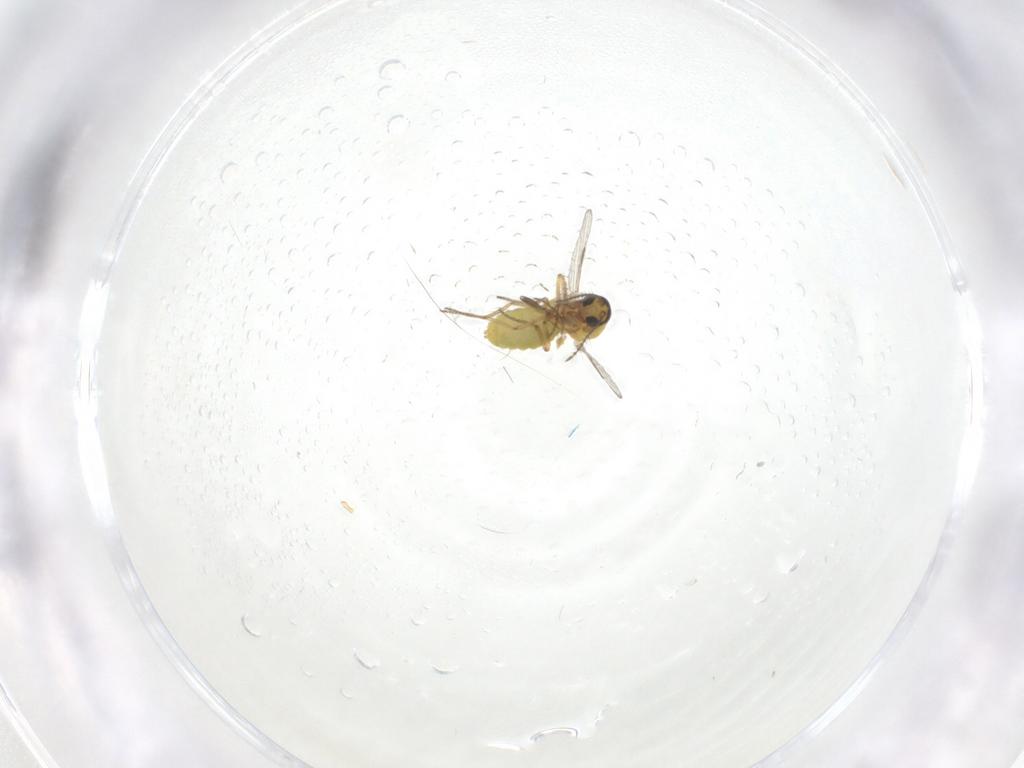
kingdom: Animalia
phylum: Arthropoda
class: Insecta
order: Diptera
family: Ceratopogonidae
